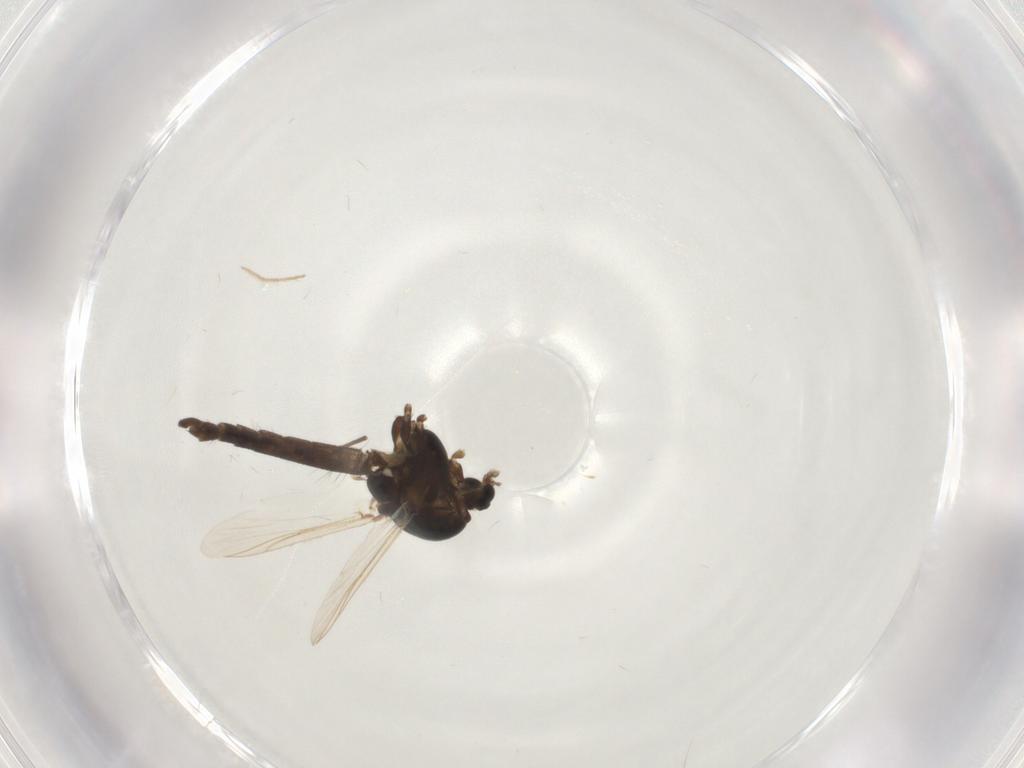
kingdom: Animalia
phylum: Arthropoda
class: Insecta
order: Diptera
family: Chironomidae
